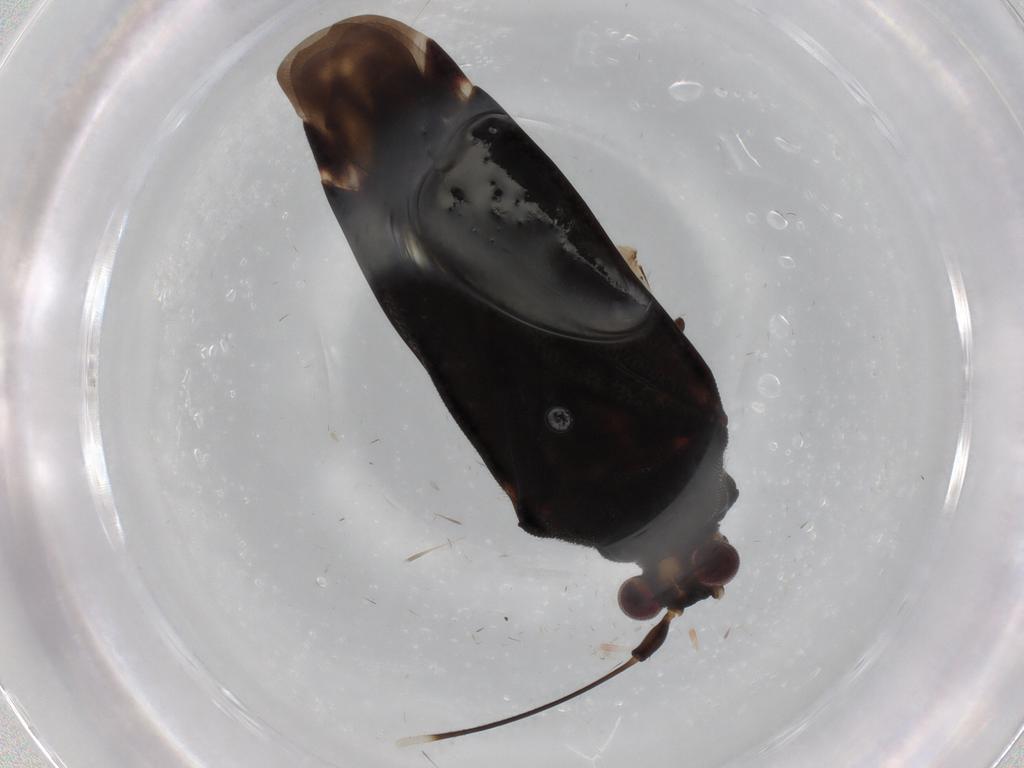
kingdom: Animalia
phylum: Arthropoda
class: Insecta
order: Hemiptera
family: Miridae
